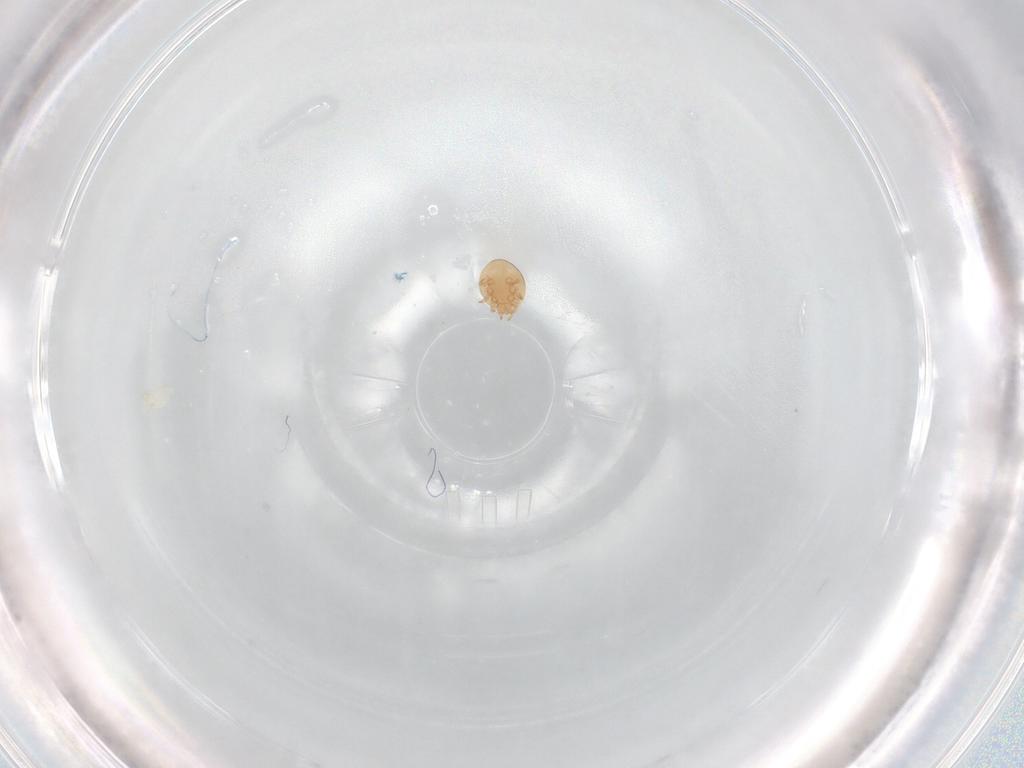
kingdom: Animalia
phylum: Arthropoda
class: Arachnida
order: Mesostigmata
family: Trematuridae
